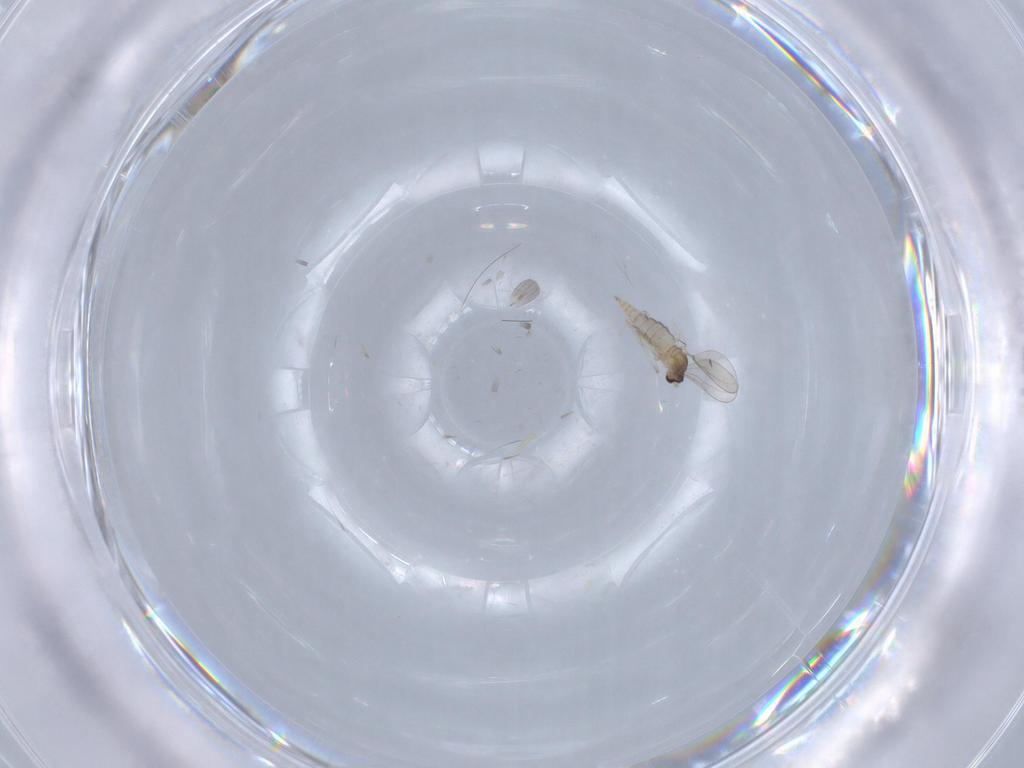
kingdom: Animalia
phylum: Arthropoda
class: Insecta
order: Diptera
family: Cecidomyiidae
